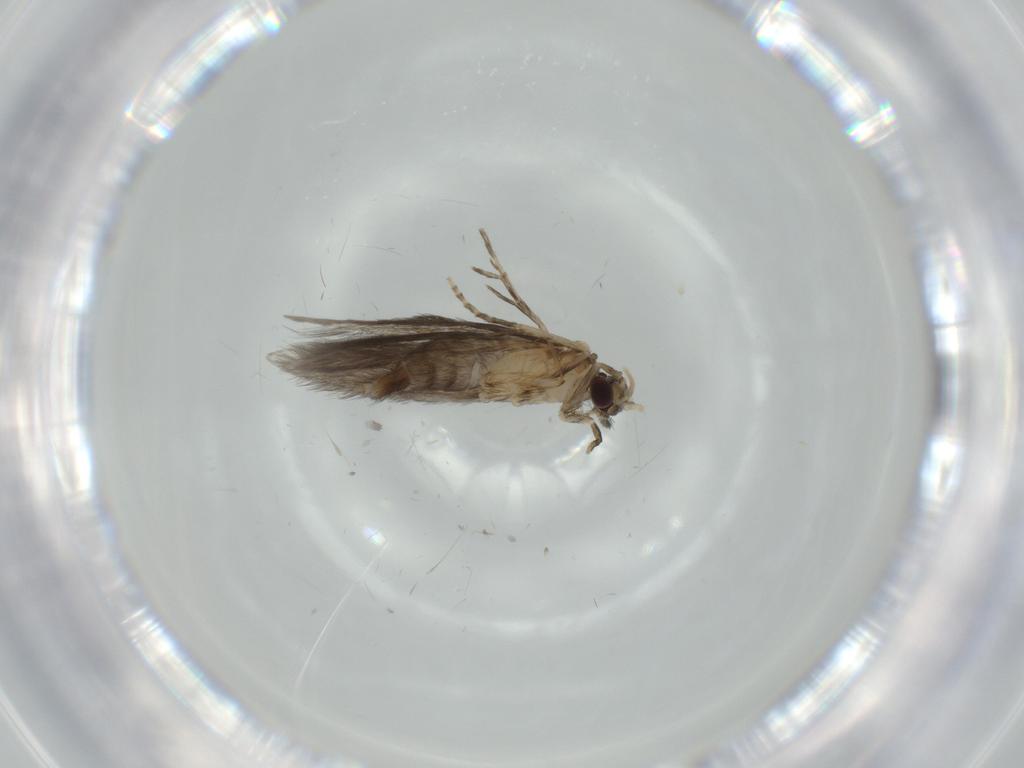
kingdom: Animalia
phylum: Arthropoda
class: Insecta
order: Trichoptera
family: Hydroptilidae
